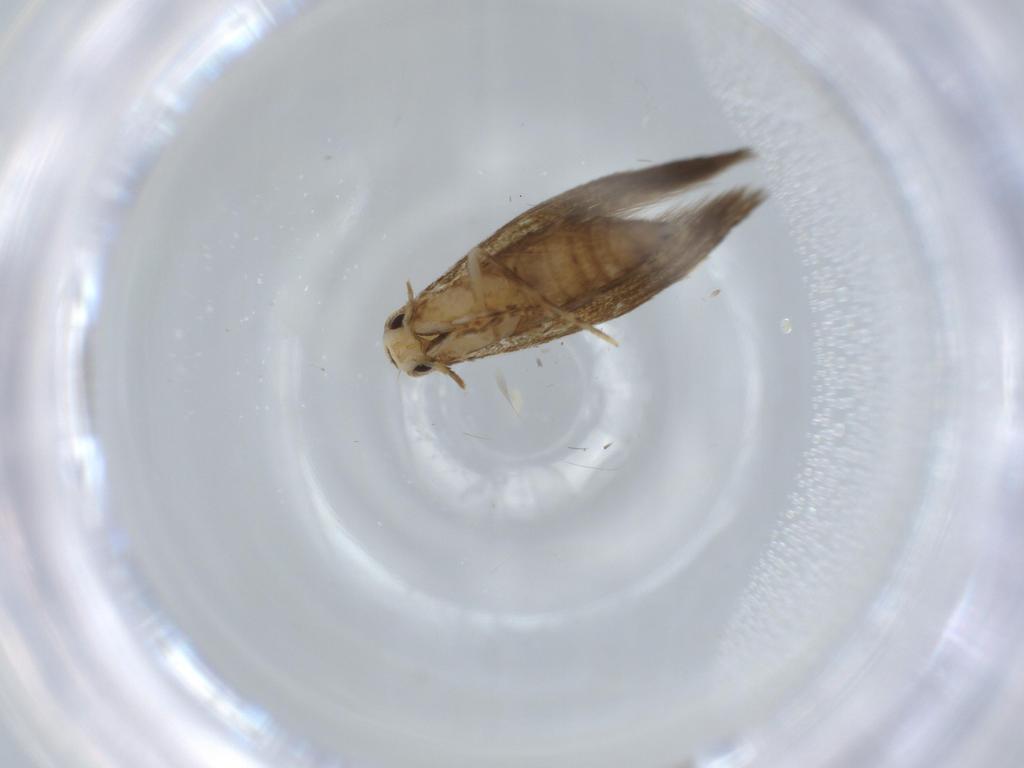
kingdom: Animalia
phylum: Arthropoda
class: Insecta
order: Lepidoptera
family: Tineidae
